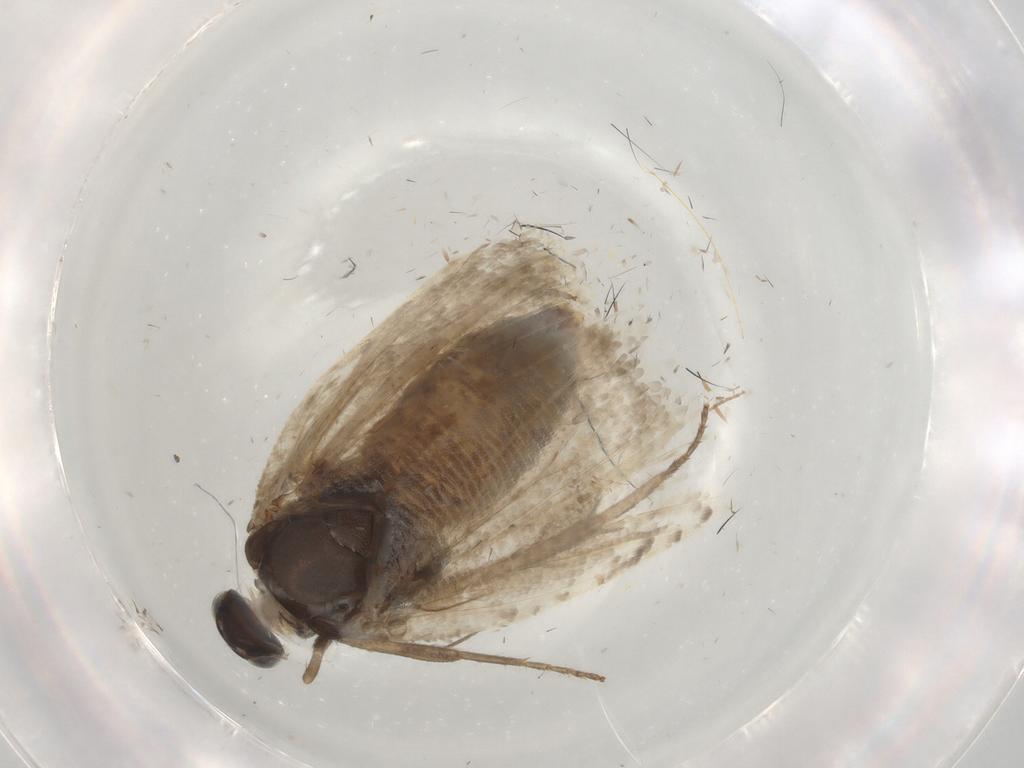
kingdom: Animalia
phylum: Arthropoda
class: Insecta
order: Lepidoptera
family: Tortricidae
